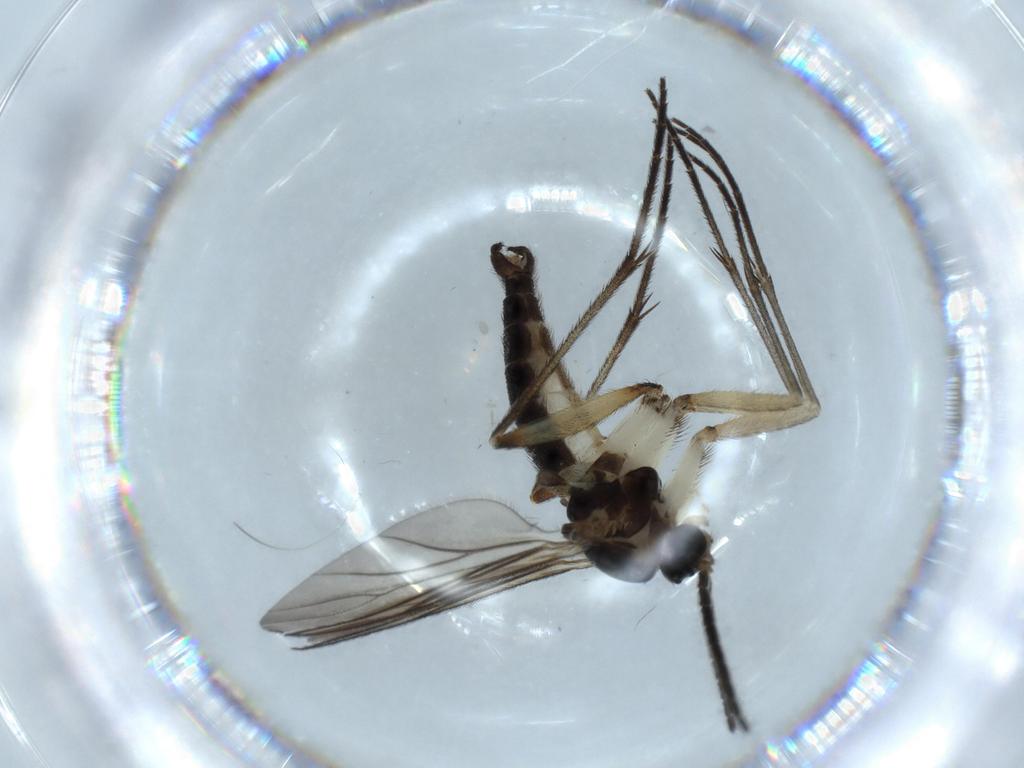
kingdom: Animalia
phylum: Arthropoda
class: Insecta
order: Diptera
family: Sciaridae
